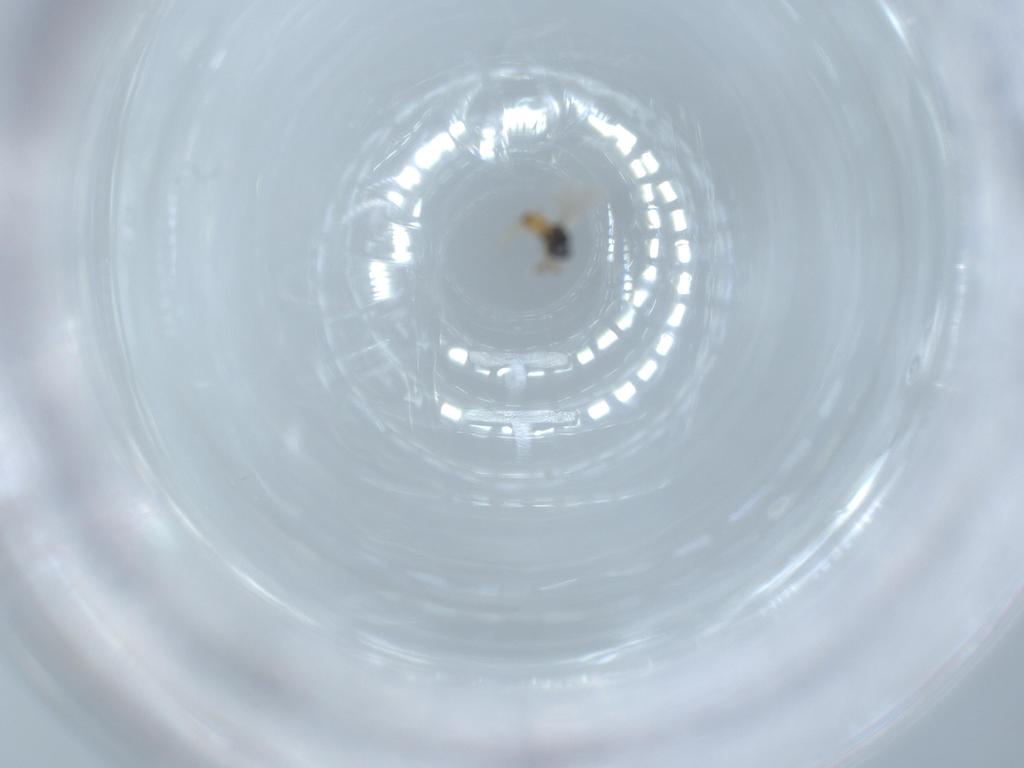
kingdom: Animalia
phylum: Arthropoda
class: Insecta
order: Hymenoptera
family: Scelionidae
